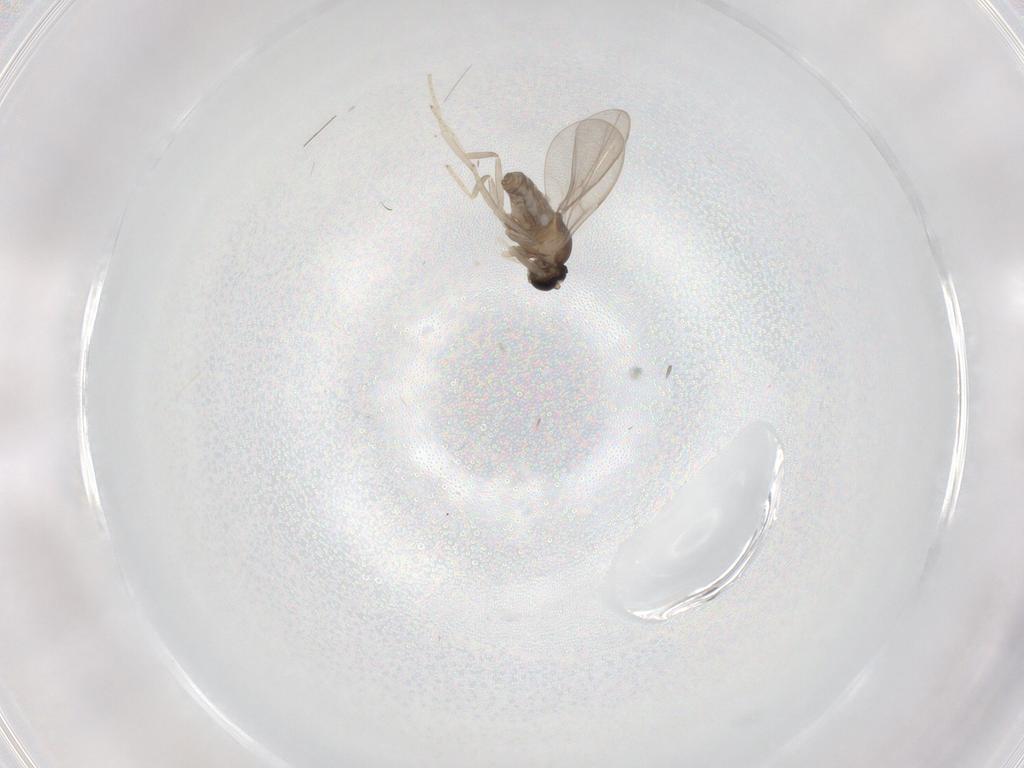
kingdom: Animalia
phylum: Arthropoda
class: Insecta
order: Diptera
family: Cecidomyiidae
